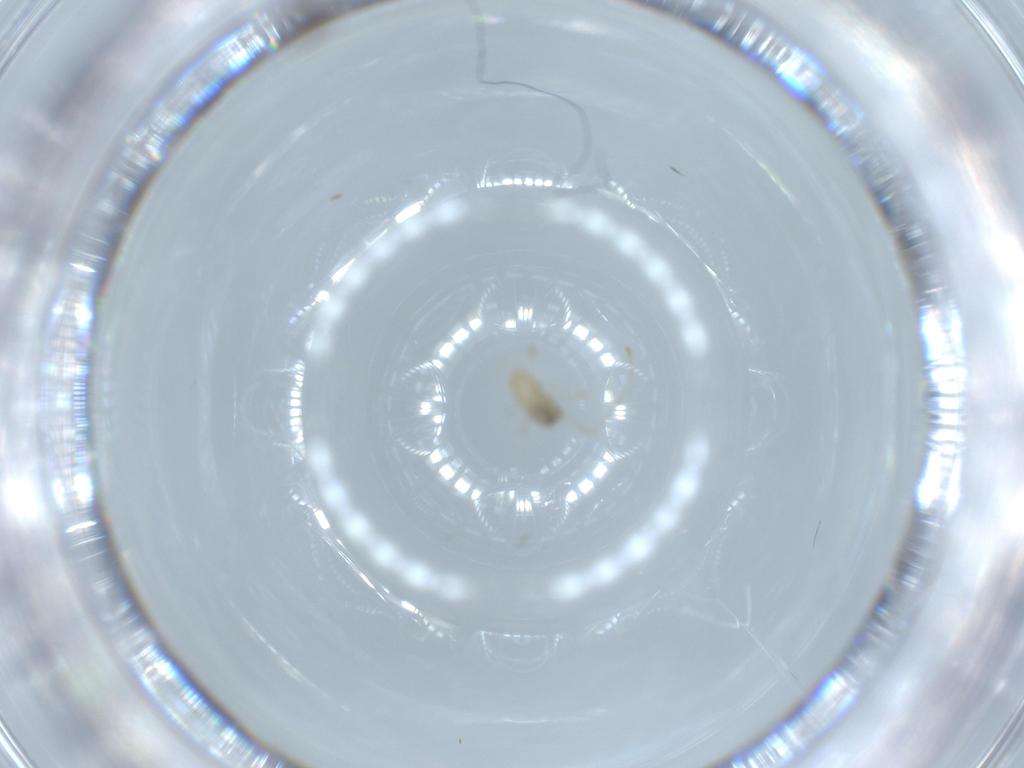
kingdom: Animalia
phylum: Arthropoda
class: Insecta
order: Diptera
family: Cecidomyiidae
